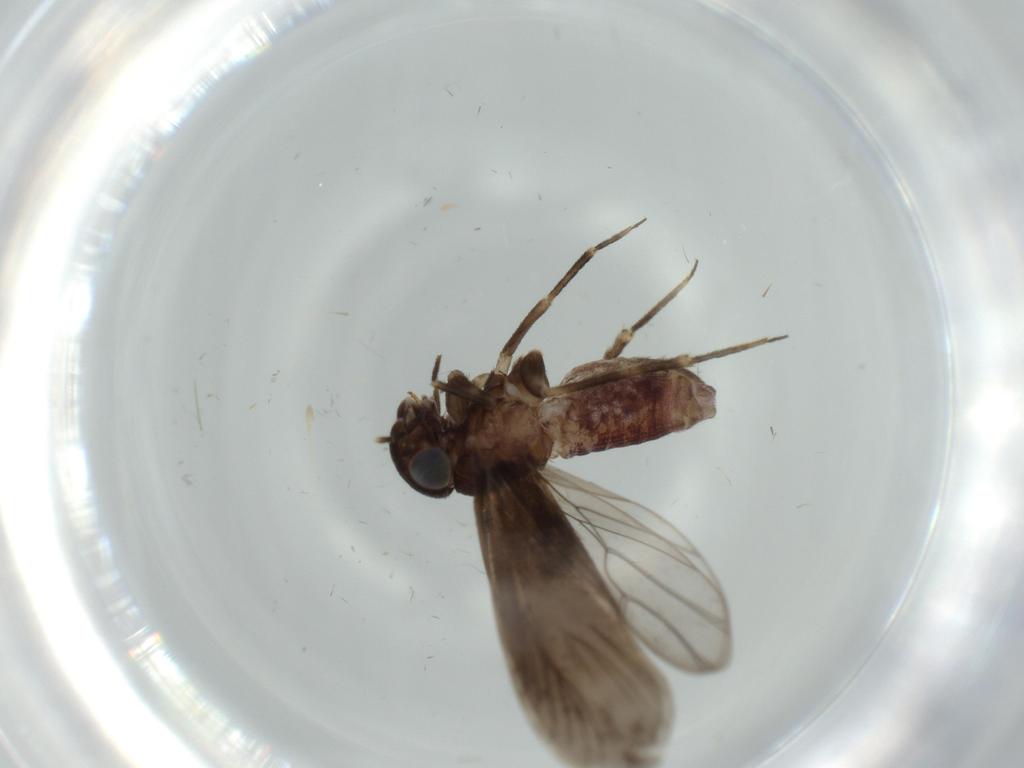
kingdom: Animalia
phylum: Arthropoda
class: Insecta
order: Psocodea
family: Amphientomidae
